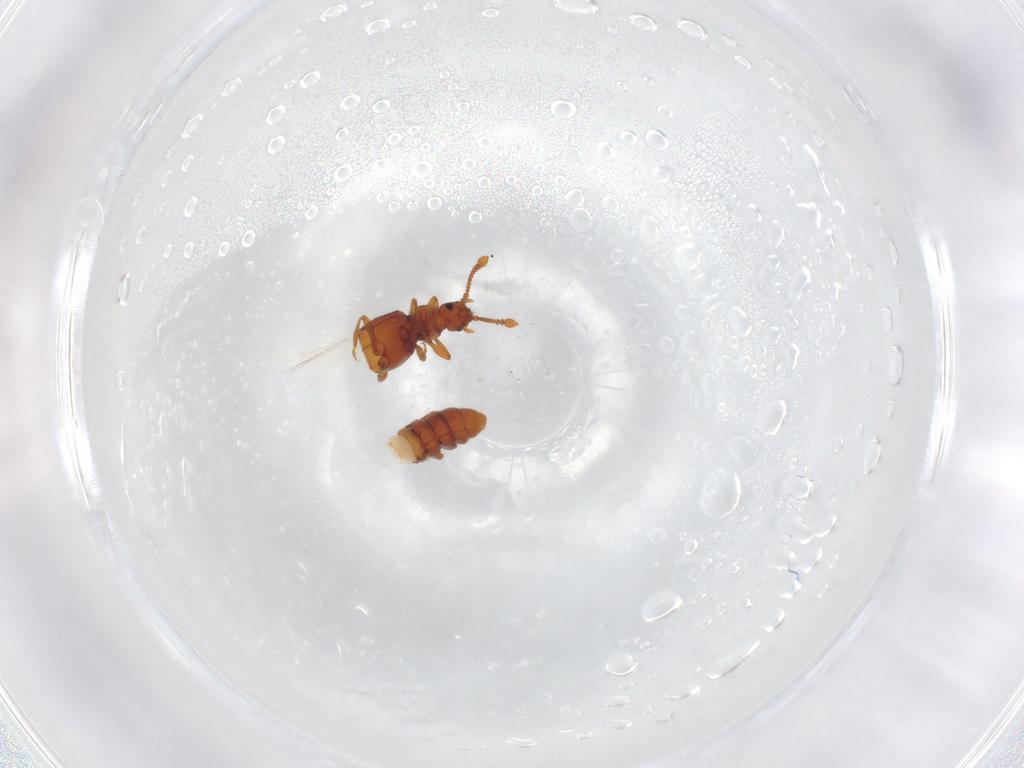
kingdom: Animalia
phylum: Arthropoda
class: Insecta
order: Coleoptera
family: Staphylinidae
